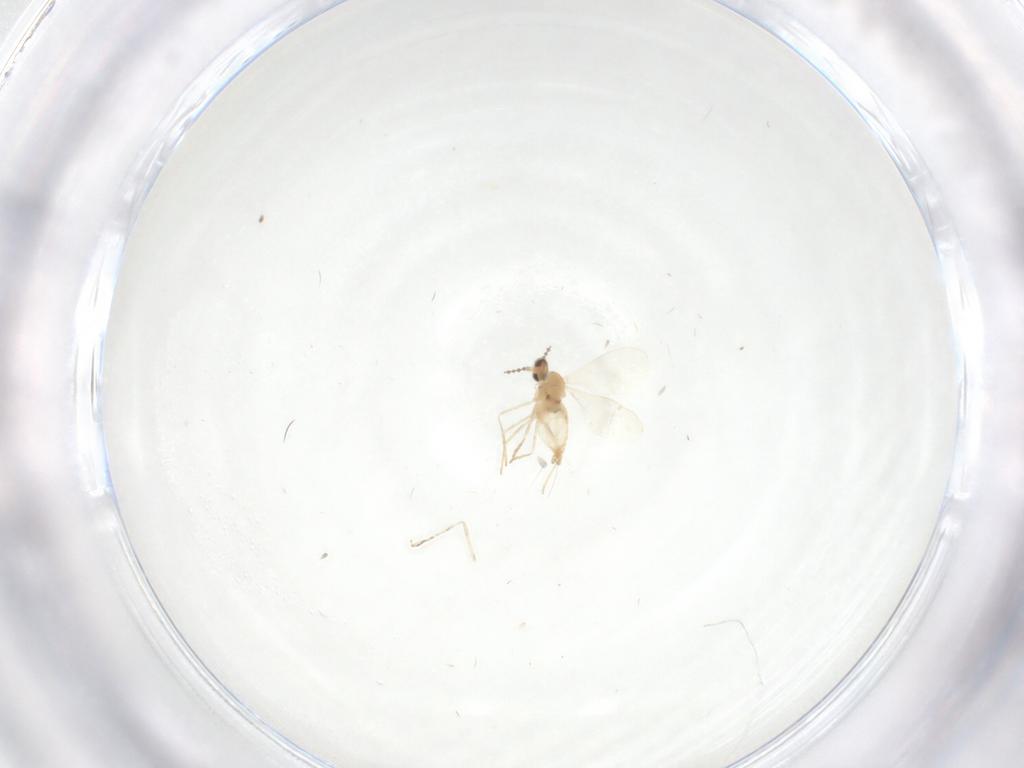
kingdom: Animalia
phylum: Arthropoda
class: Insecta
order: Diptera
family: Cecidomyiidae
